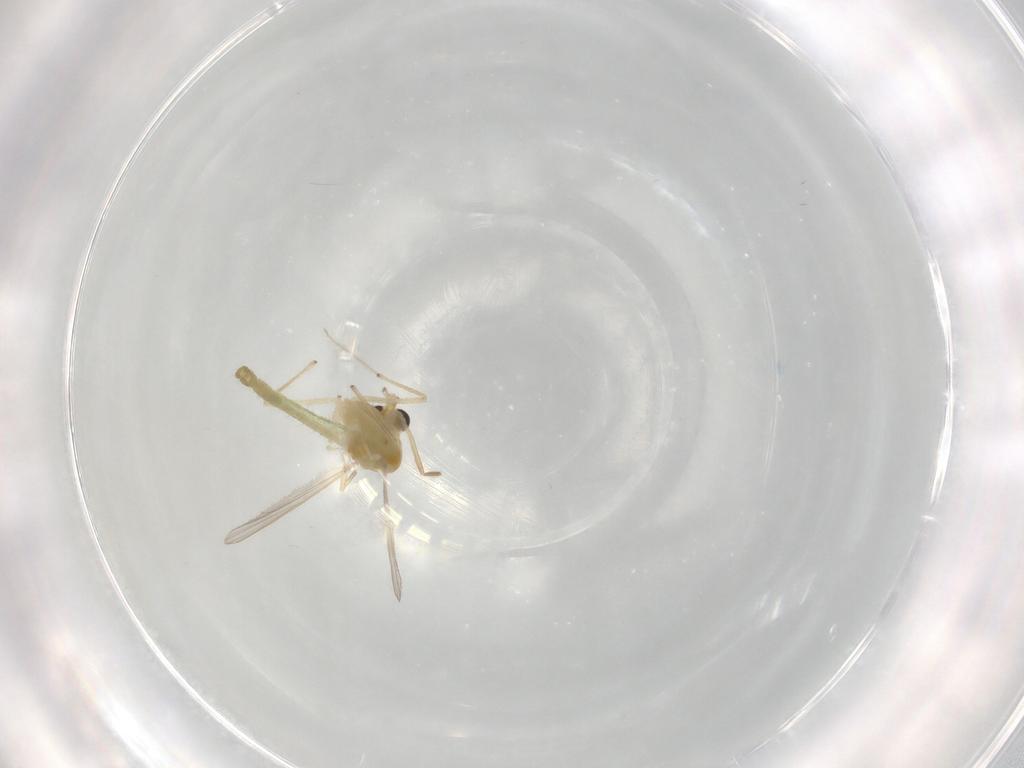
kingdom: Animalia
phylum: Arthropoda
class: Insecta
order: Diptera
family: Chironomidae
